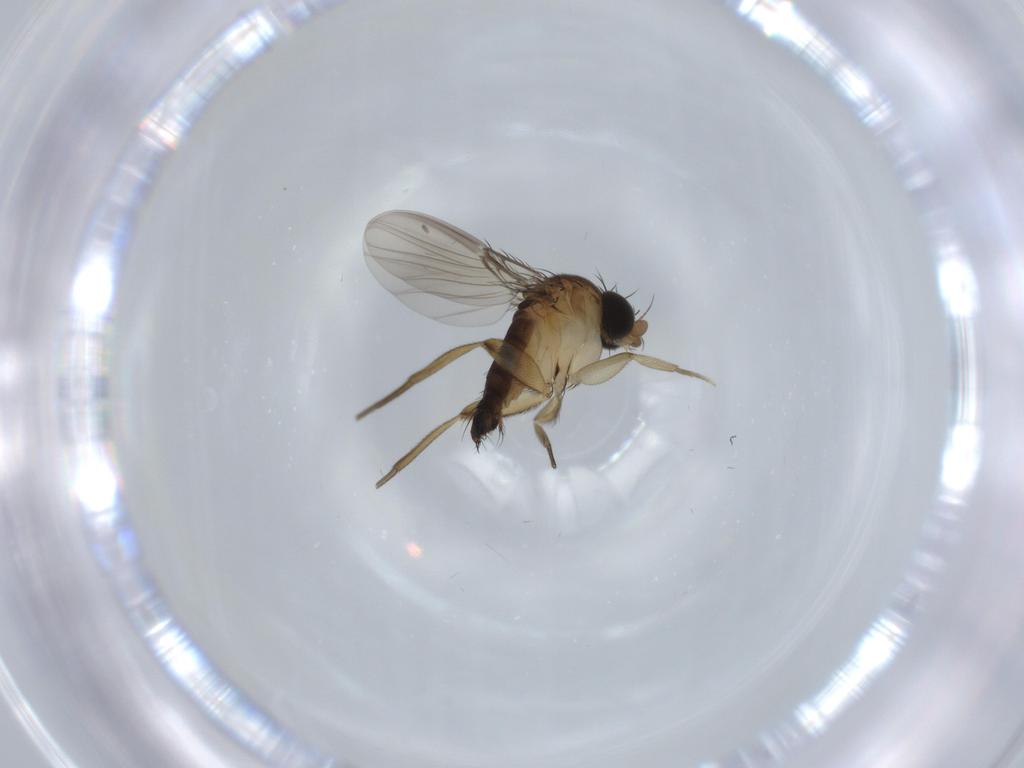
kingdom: Animalia
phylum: Arthropoda
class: Insecta
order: Diptera
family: Phoridae
